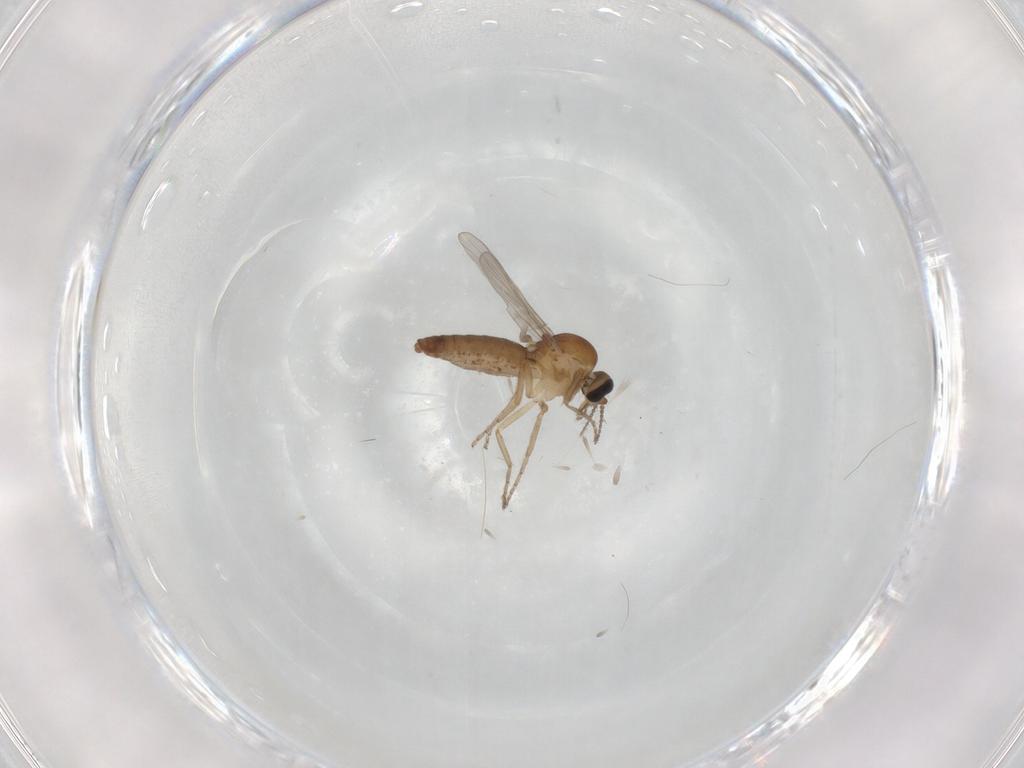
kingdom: Animalia
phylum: Arthropoda
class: Insecta
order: Diptera
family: Ceratopogonidae
